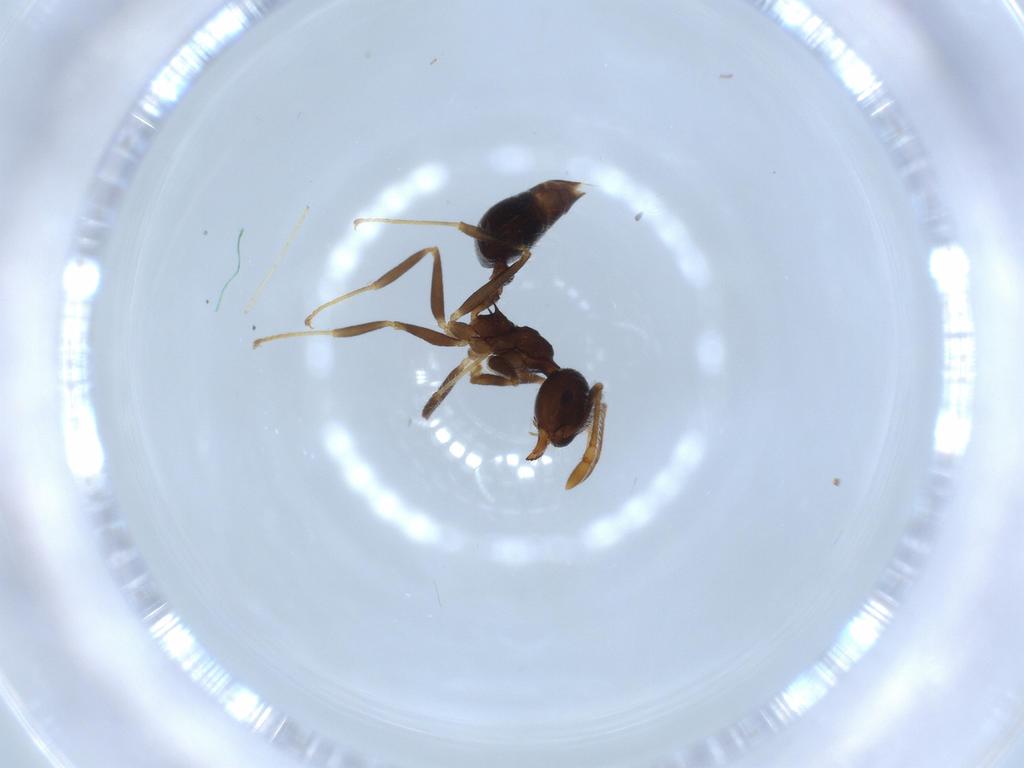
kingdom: Animalia
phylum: Arthropoda
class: Insecta
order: Hymenoptera
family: Formicidae
